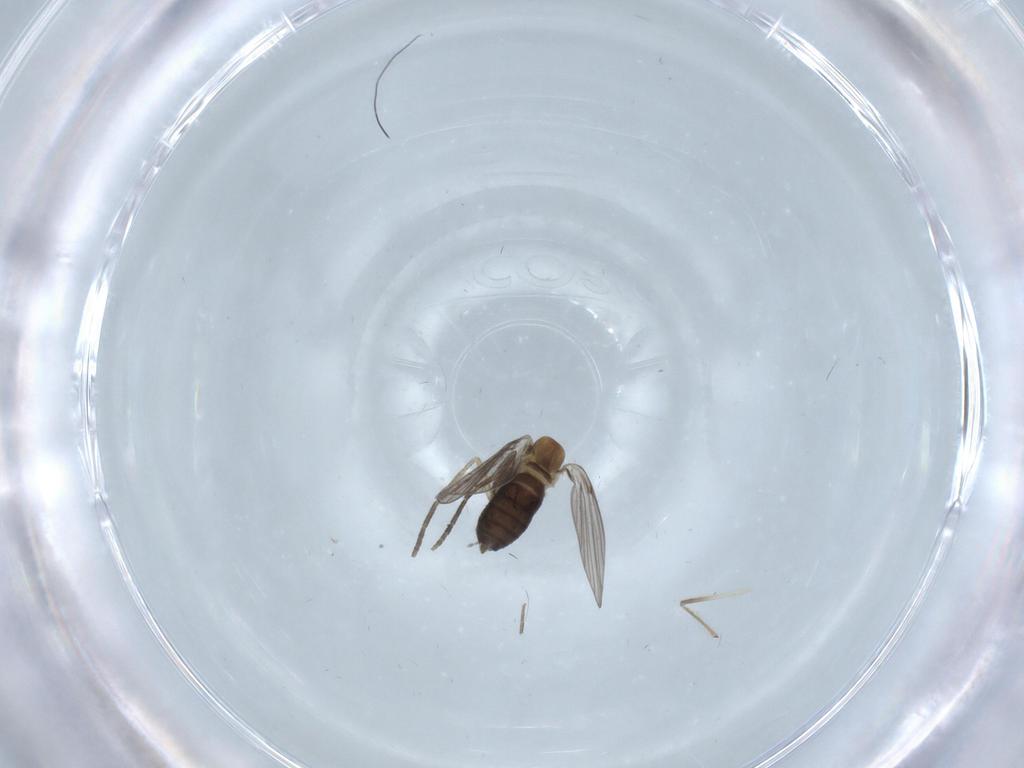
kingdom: Animalia
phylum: Arthropoda
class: Insecta
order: Diptera
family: Psychodidae
